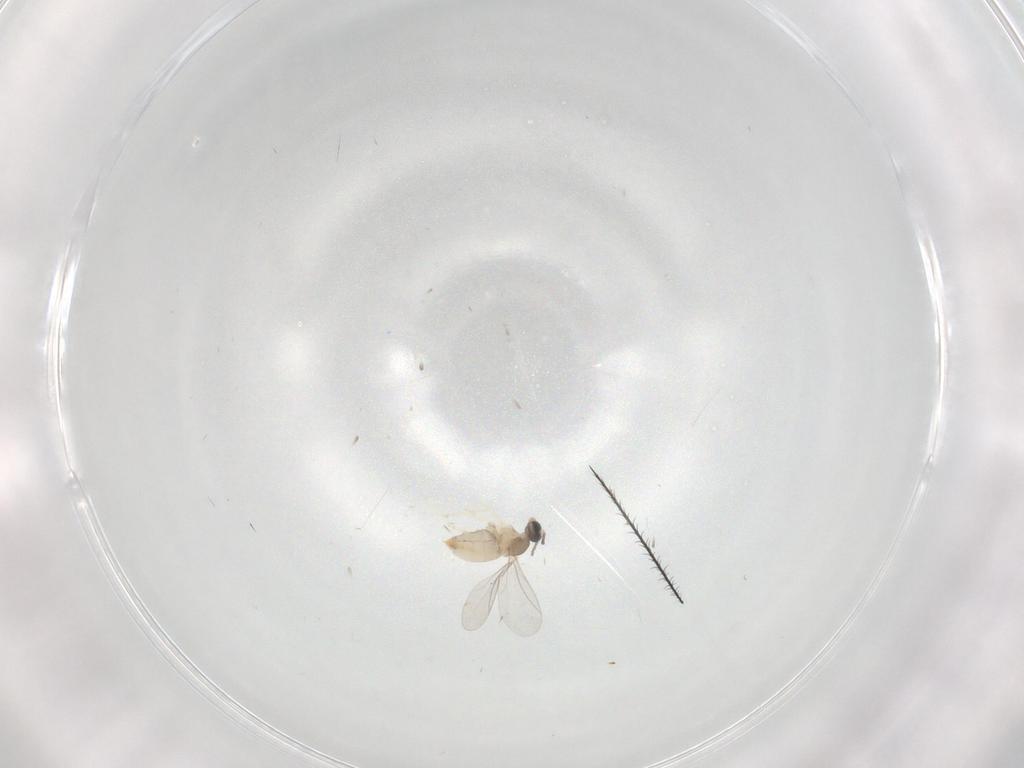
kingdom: Animalia
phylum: Arthropoda
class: Insecta
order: Diptera
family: Cecidomyiidae
